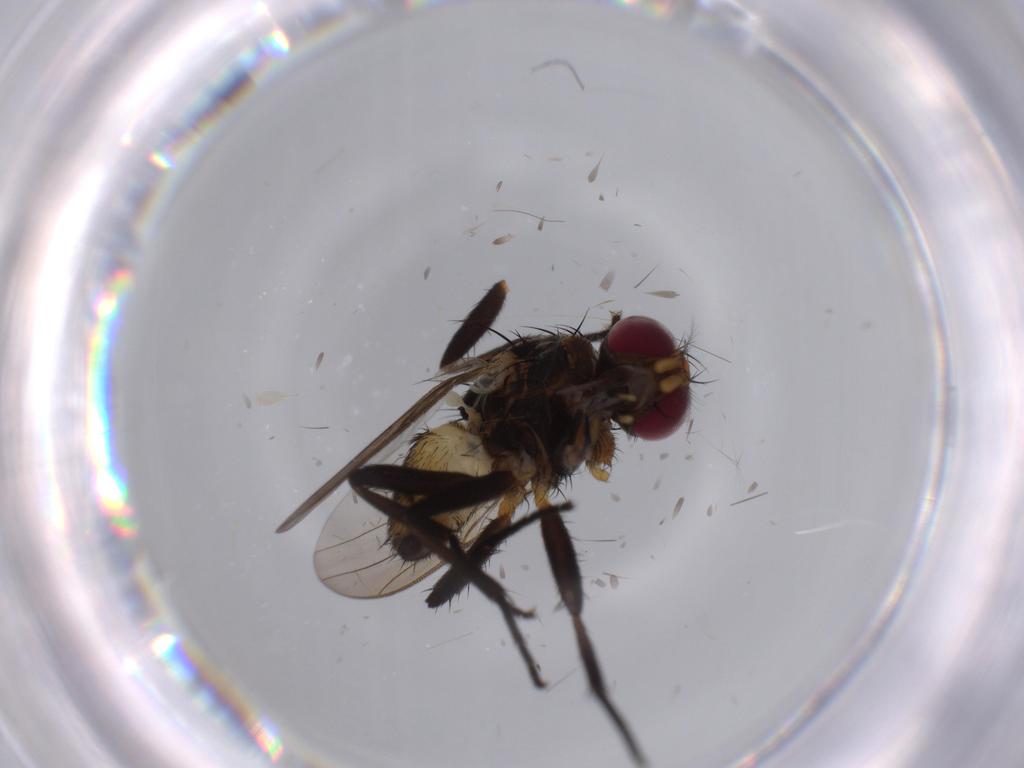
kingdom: Animalia
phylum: Arthropoda
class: Insecta
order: Diptera
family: Anthomyiidae
